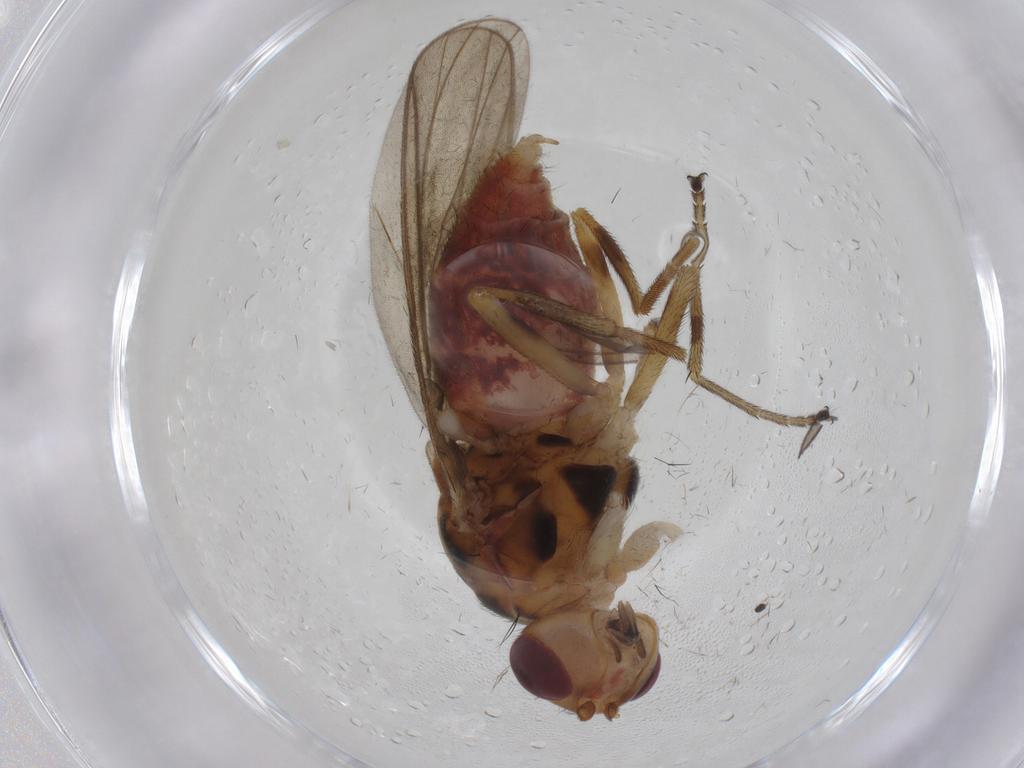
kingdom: Animalia
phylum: Arthropoda
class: Insecta
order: Diptera
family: Chloropidae
